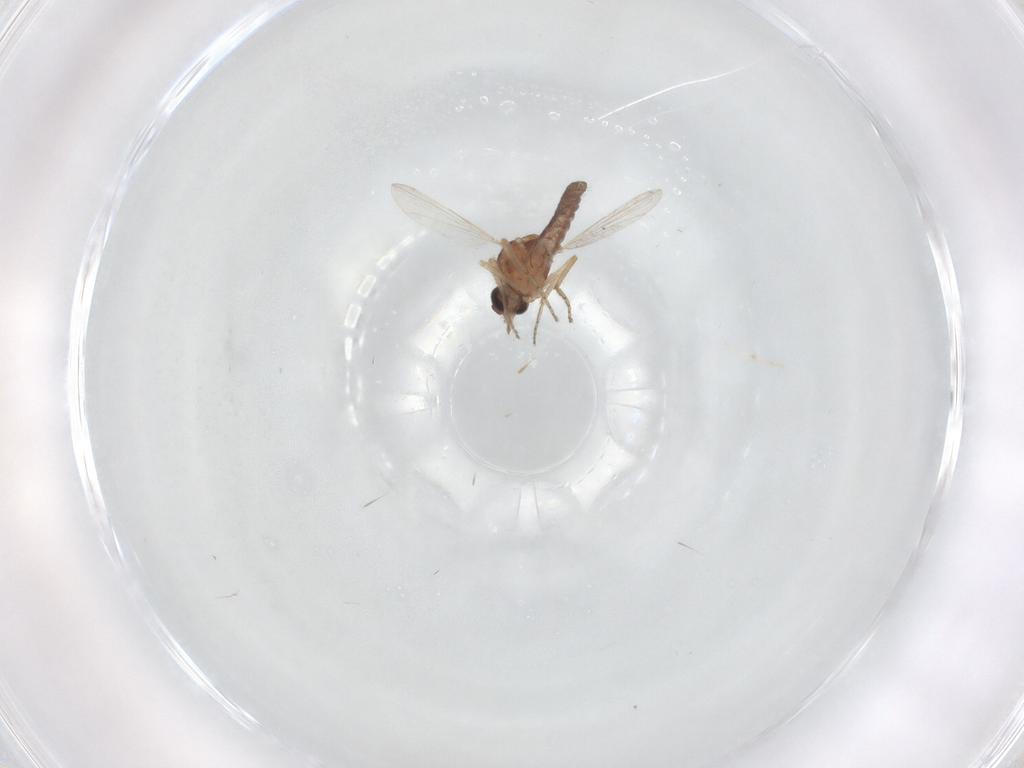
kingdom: Animalia
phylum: Arthropoda
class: Insecta
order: Diptera
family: Ceratopogonidae
